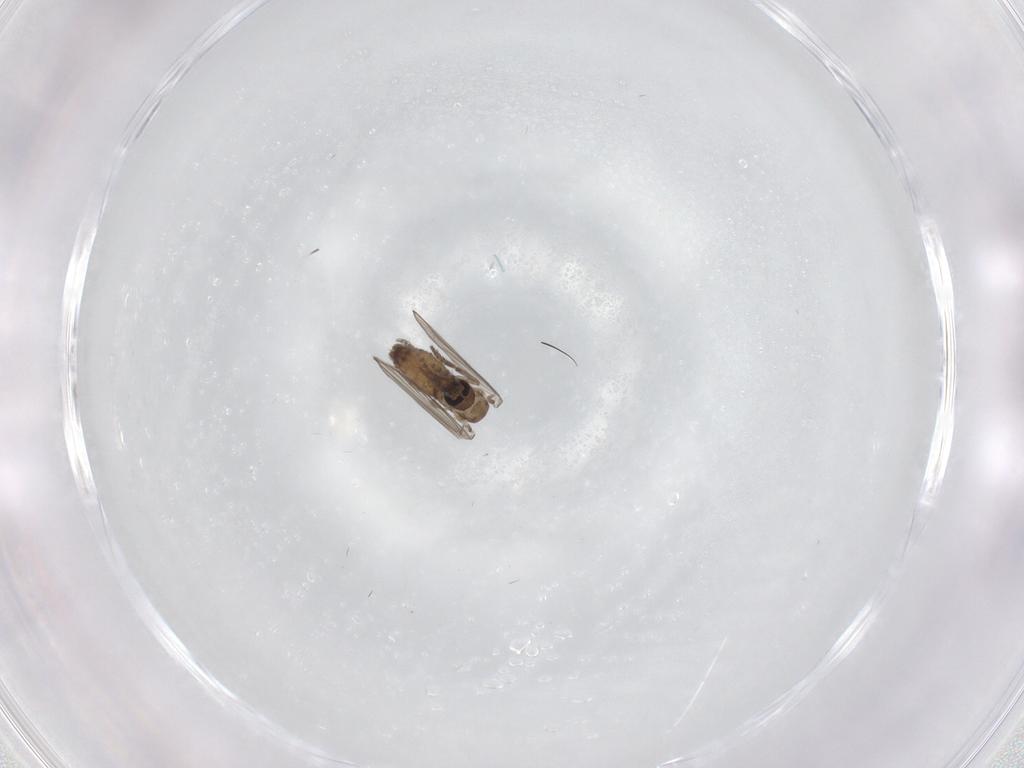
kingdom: Animalia
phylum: Arthropoda
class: Insecta
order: Diptera
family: Psychodidae
